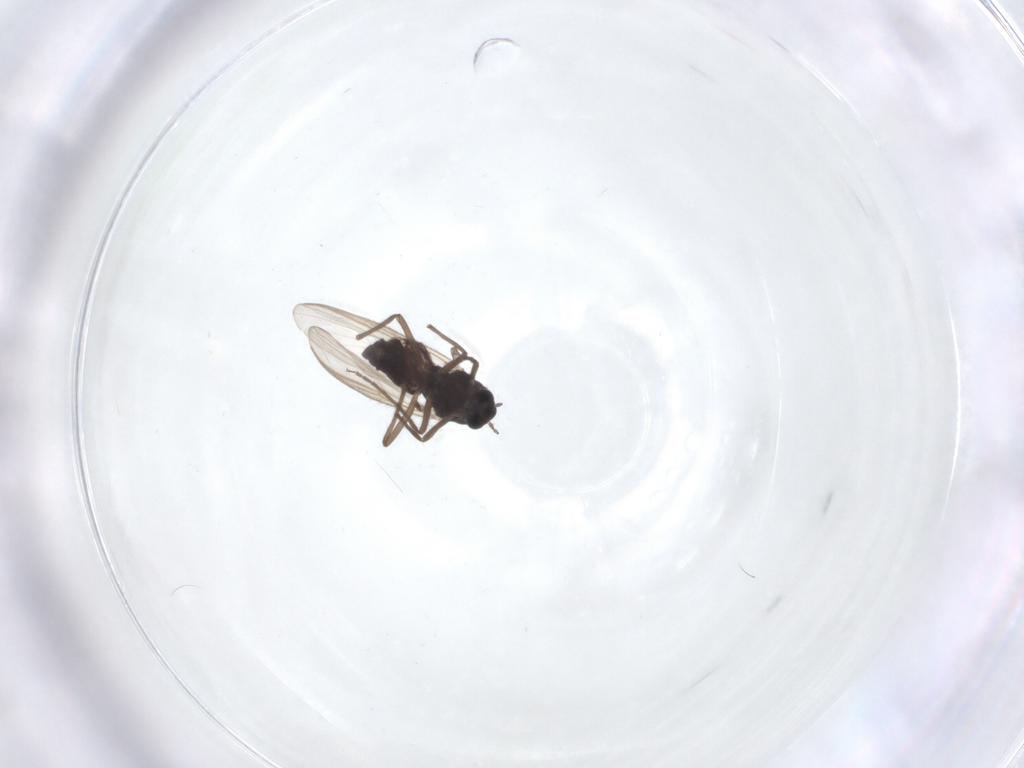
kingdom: Animalia
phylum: Arthropoda
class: Insecta
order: Diptera
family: Chironomidae
